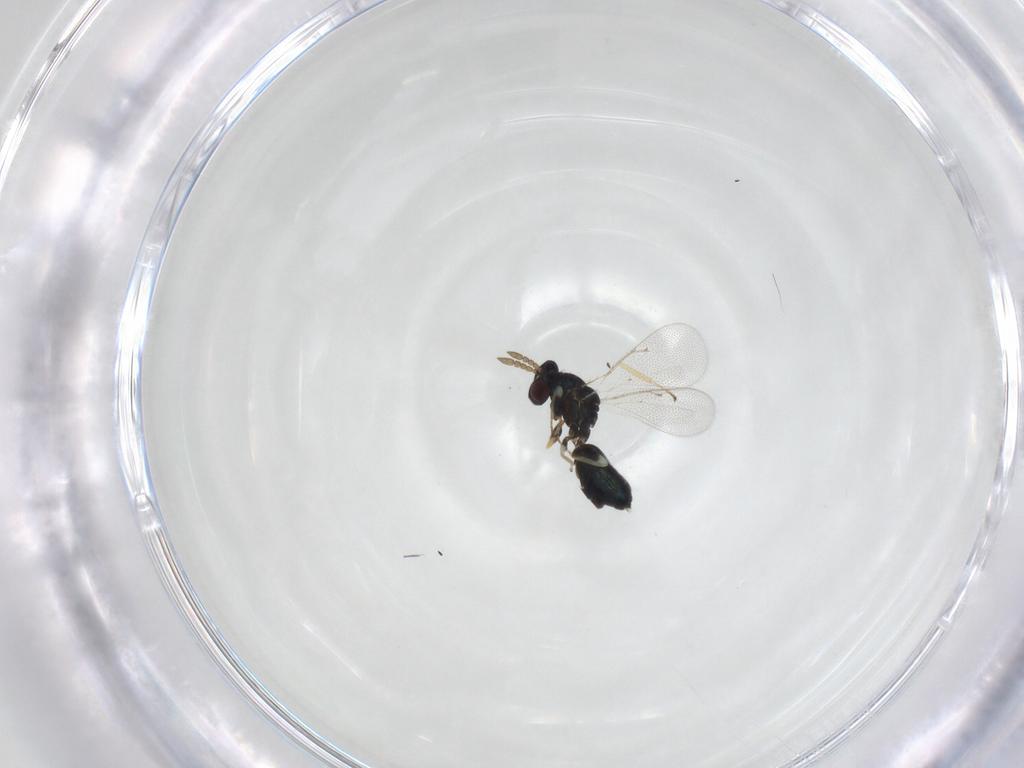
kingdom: Animalia
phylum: Arthropoda
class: Insecta
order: Hymenoptera
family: Eulophidae
